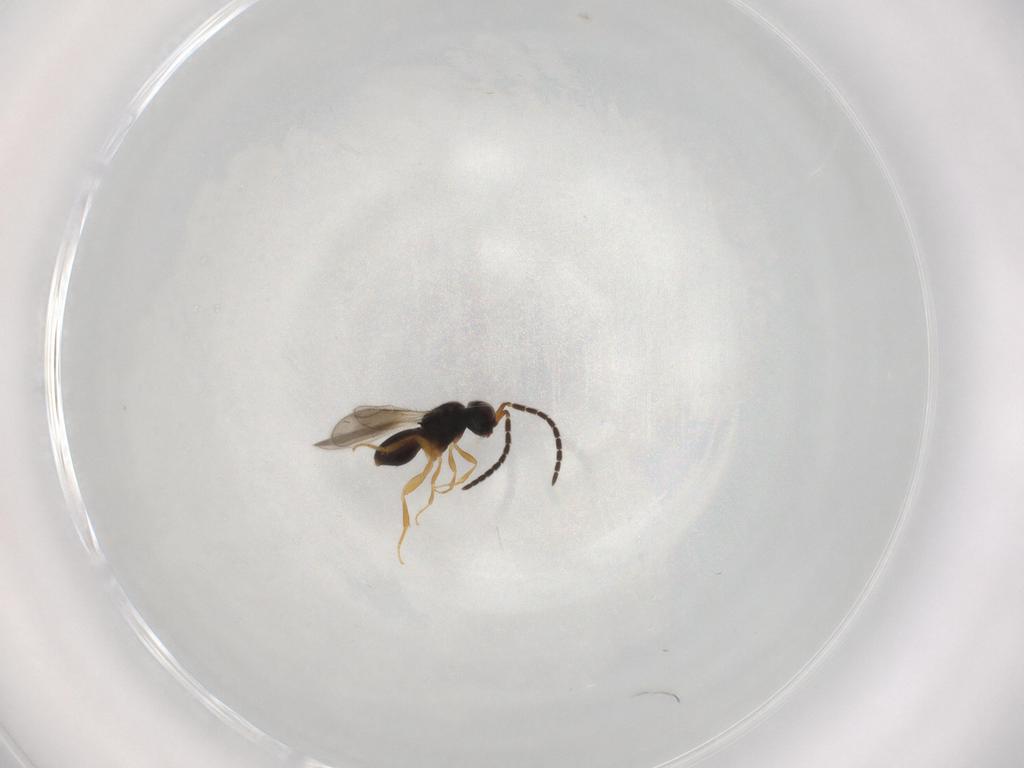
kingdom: Animalia
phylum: Arthropoda
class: Insecta
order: Hymenoptera
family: Ceraphronidae
